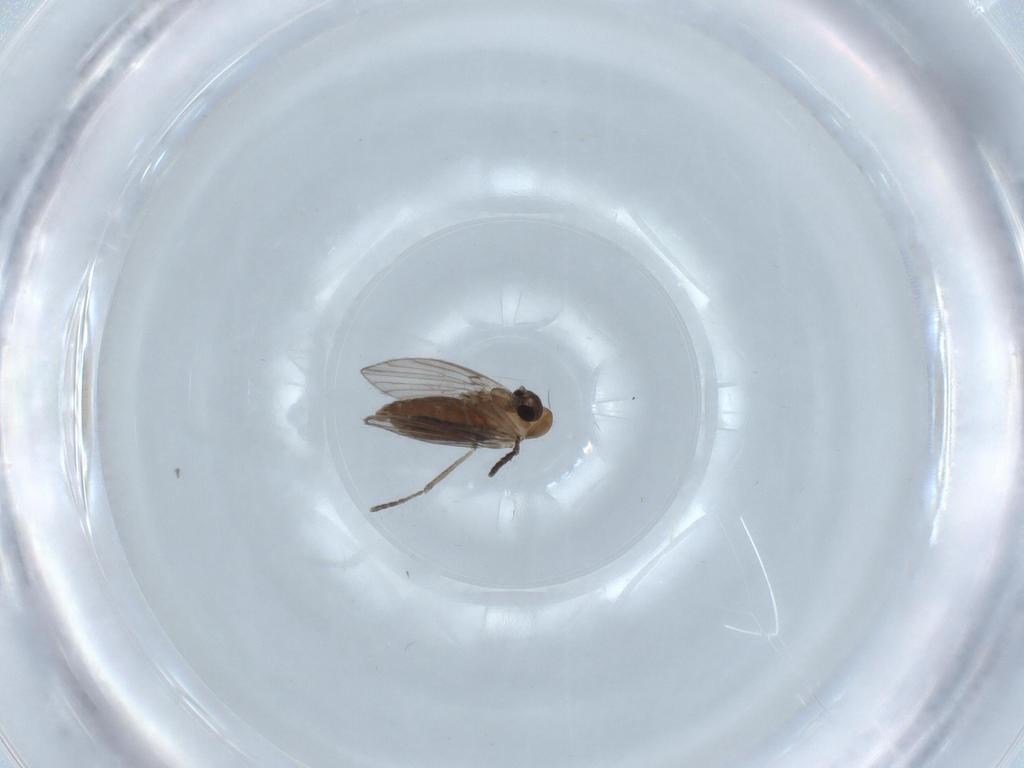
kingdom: Animalia
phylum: Arthropoda
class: Insecta
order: Diptera
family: Psychodidae
